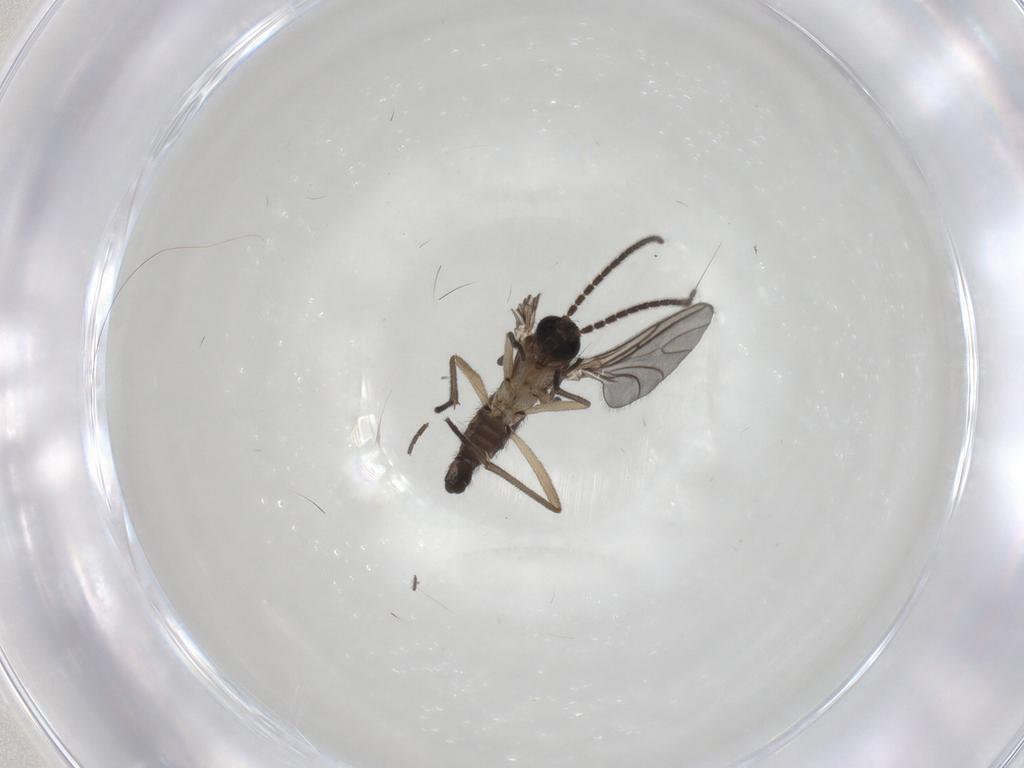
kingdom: Animalia
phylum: Arthropoda
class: Insecta
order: Diptera
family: Sciaridae
